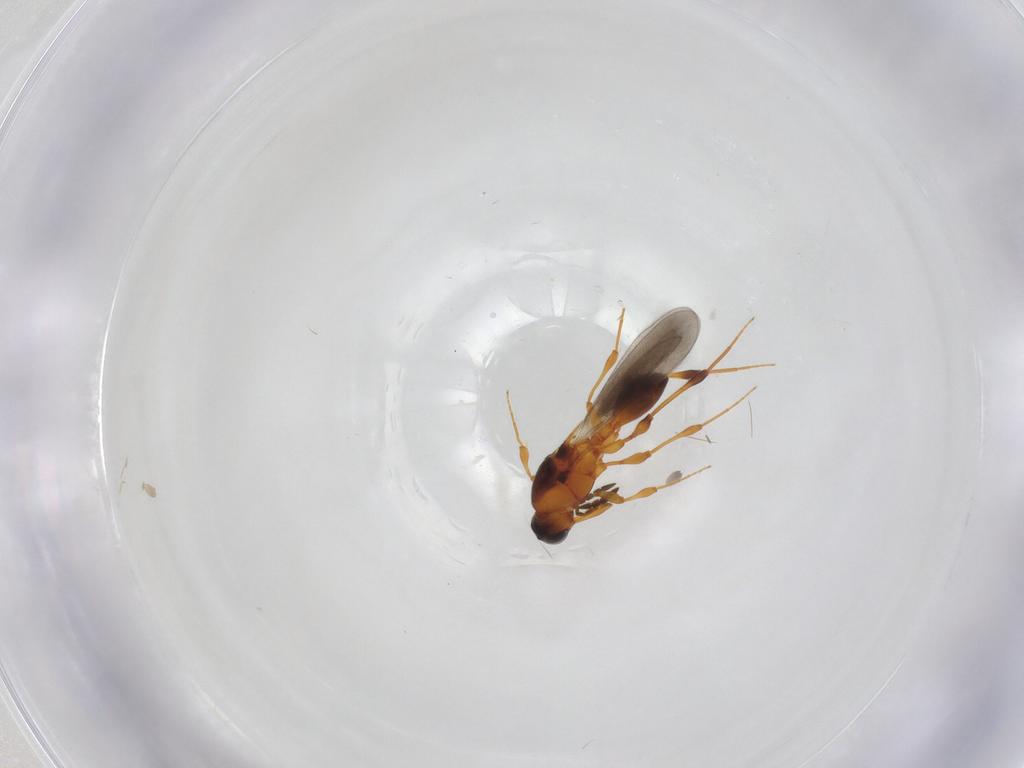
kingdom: Animalia
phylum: Arthropoda
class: Insecta
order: Hymenoptera
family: Platygastridae
